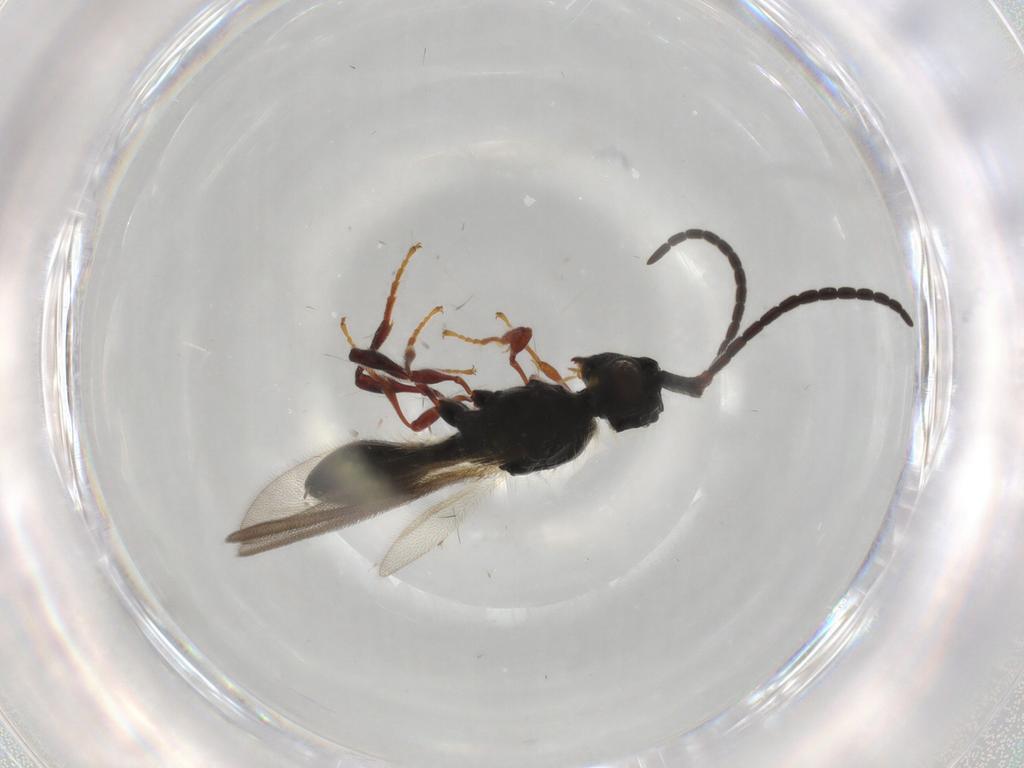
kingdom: Animalia
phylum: Arthropoda
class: Insecta
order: Hymenoptera
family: Diapriidae
